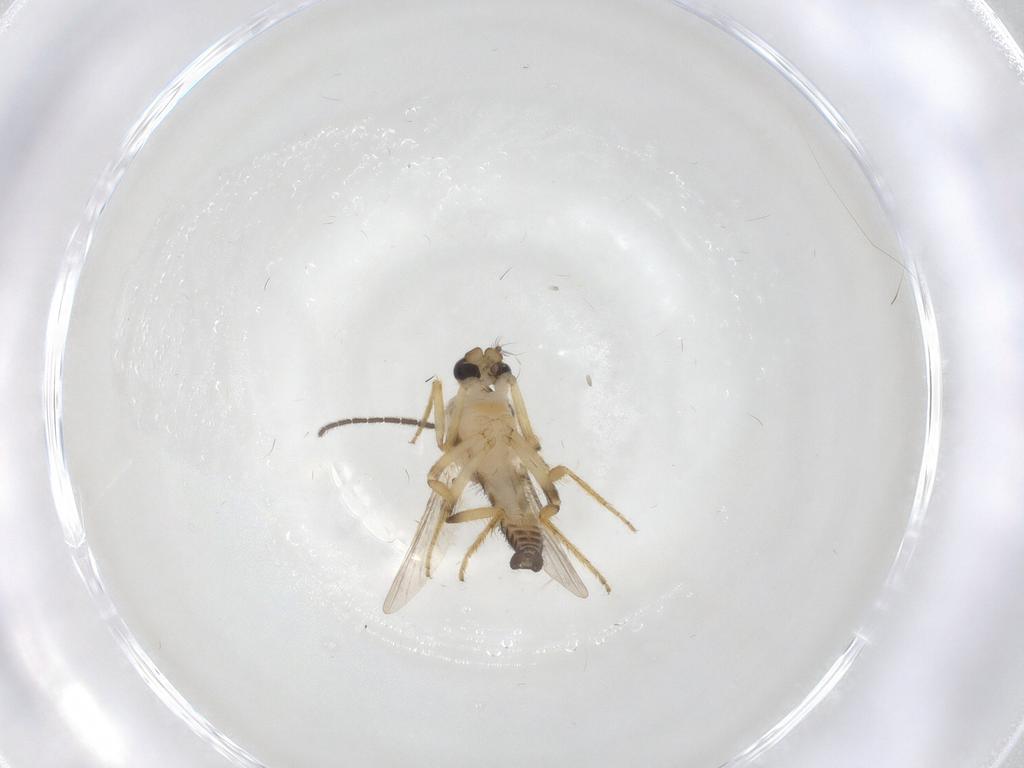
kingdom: Animalia
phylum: Arthropoda
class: Insecta
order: Diptera
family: Ceratopogonidae
